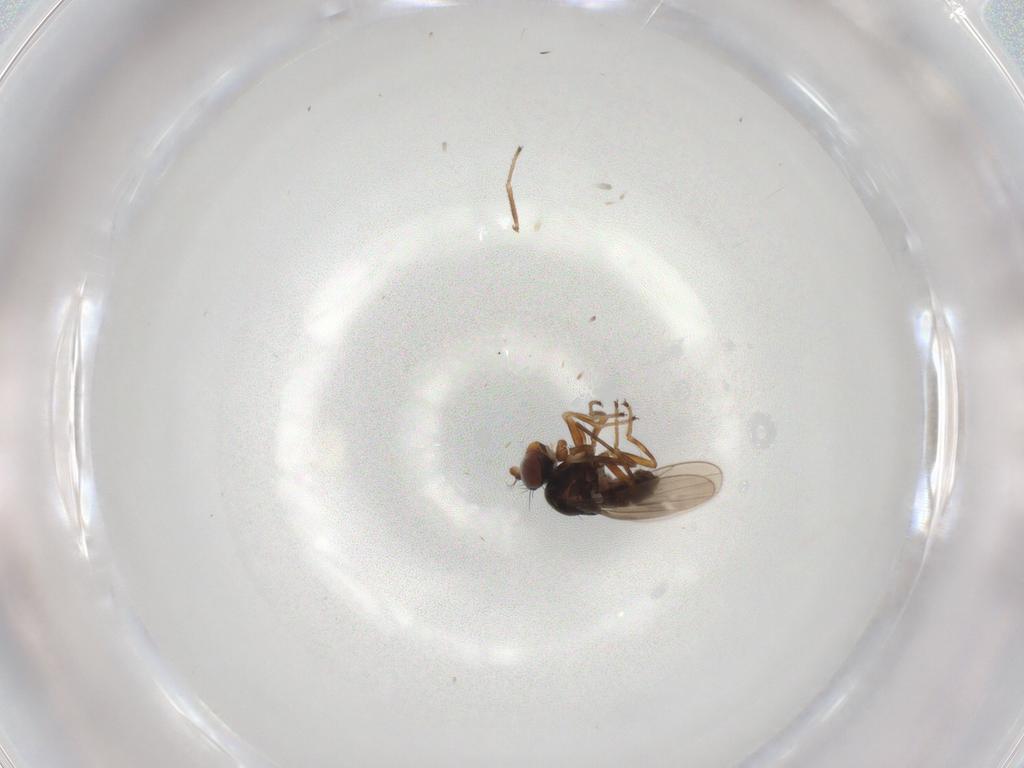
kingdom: Animalia
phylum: Arthropoda
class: Insecta
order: Diptera
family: Ephydridae
